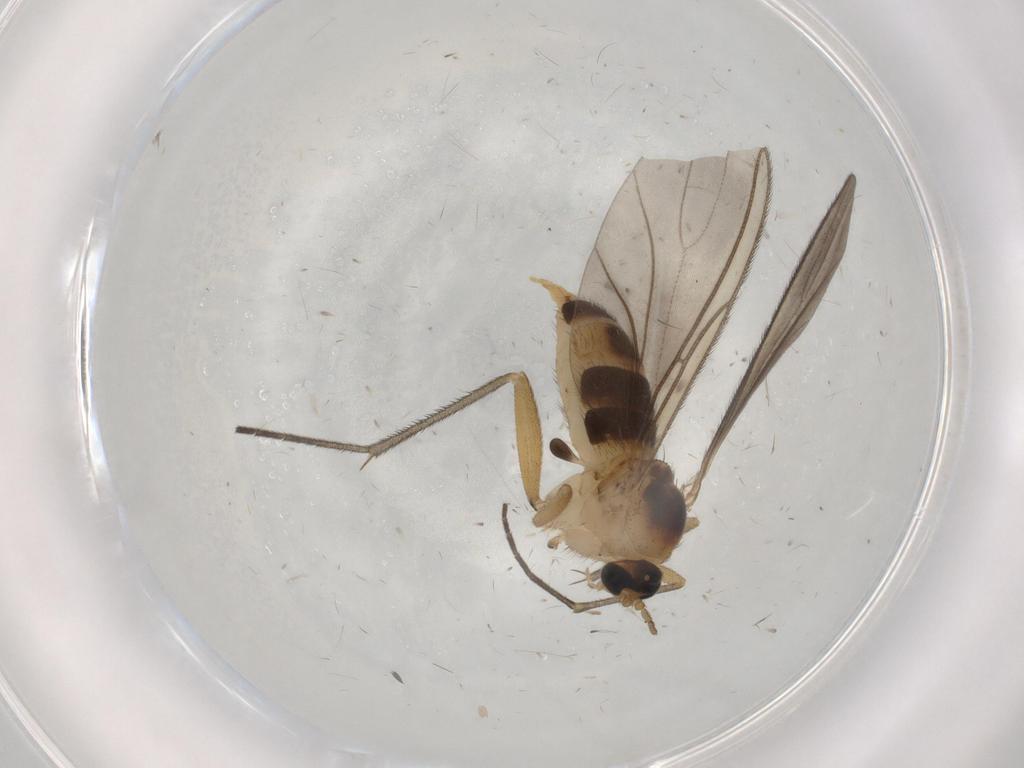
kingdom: Animalia
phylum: Arthropoda
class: Insecta
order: Diptera
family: Sciaridae
